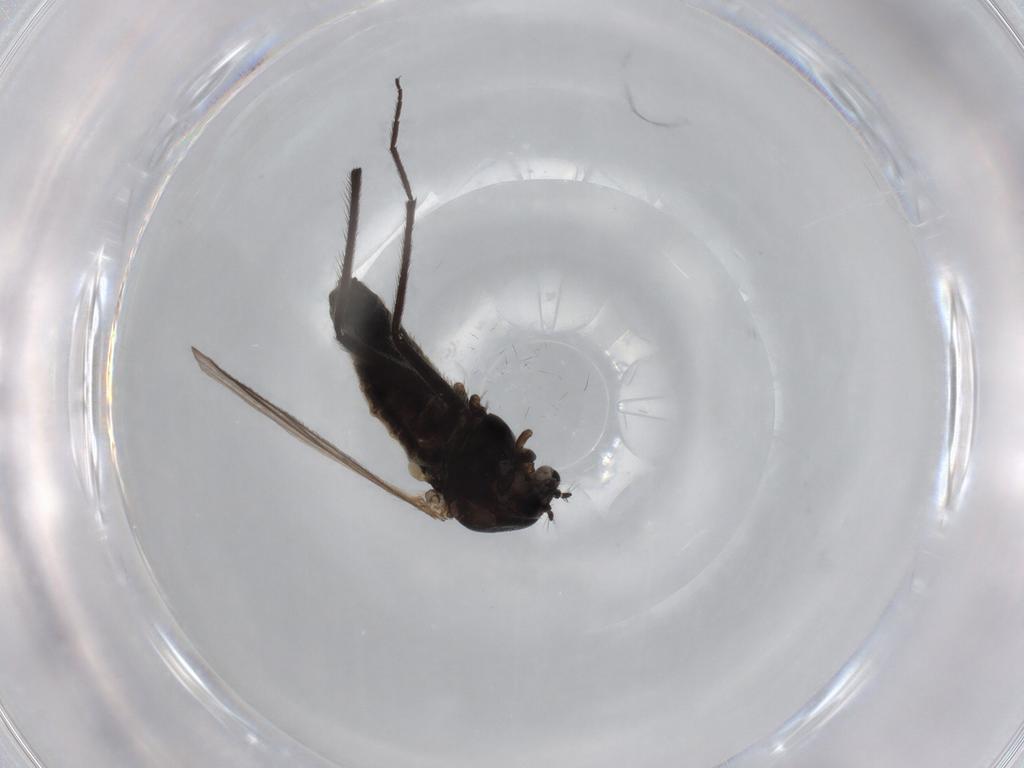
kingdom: Animalia
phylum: Arthropoda
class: Insecta
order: Diptera
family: Chironomidae
